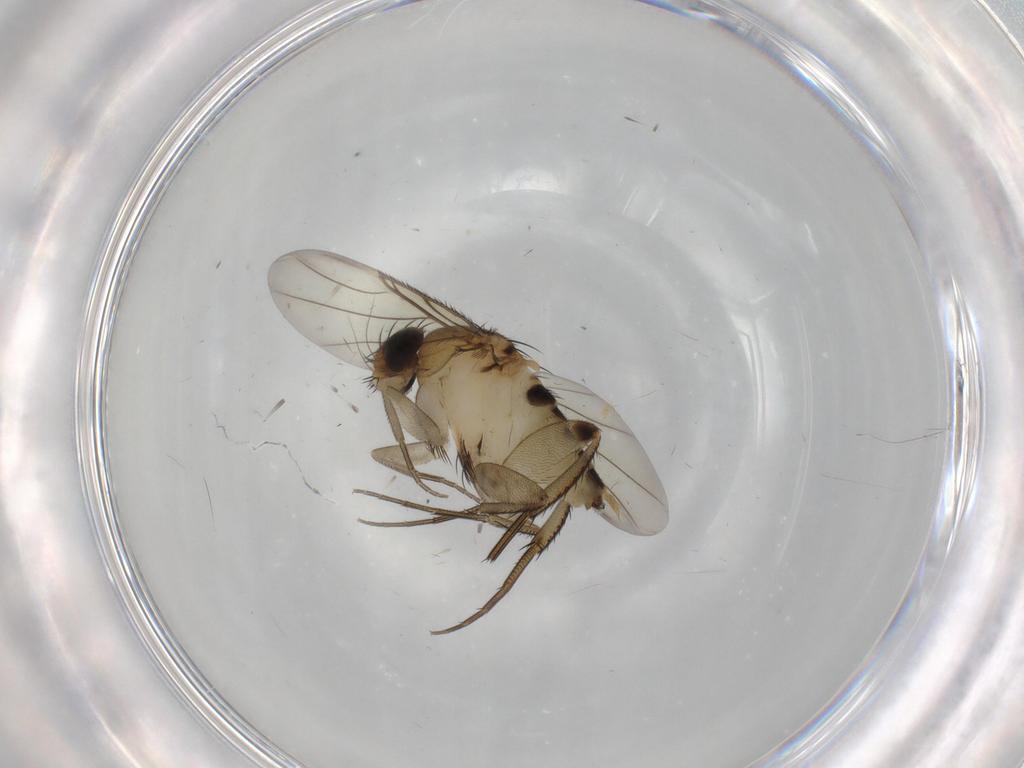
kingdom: Animalia
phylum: Arthropoda
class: Insecta
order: Diptera
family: Phoridae
